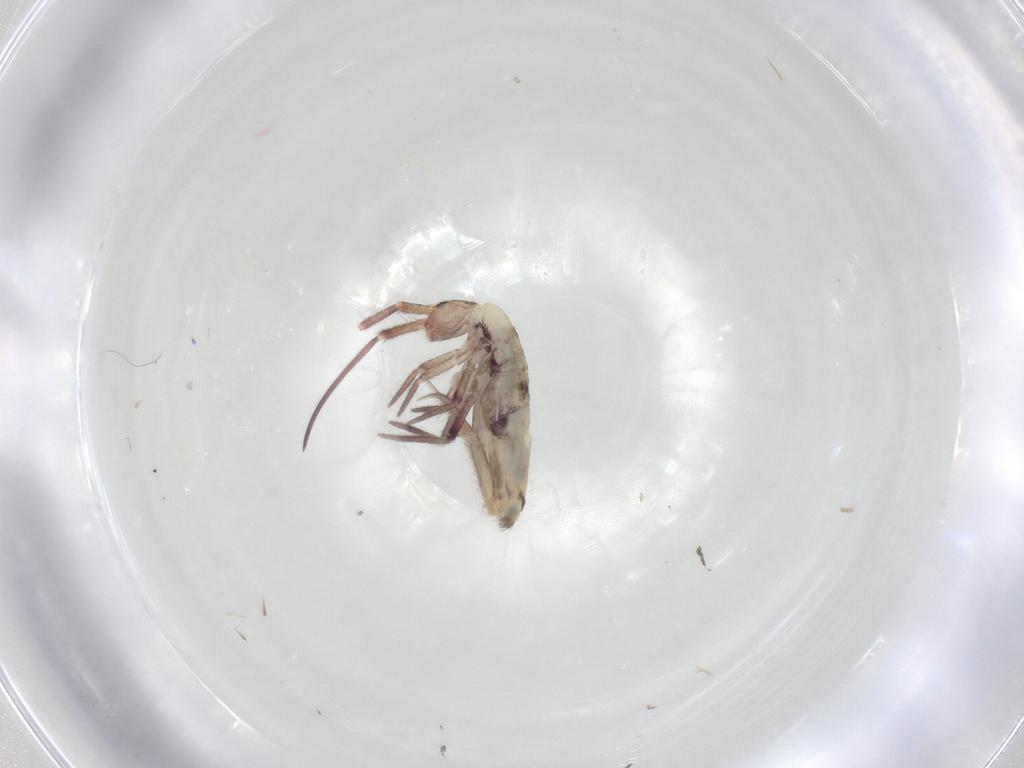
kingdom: Animalia
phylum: Arthropoda
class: Collembola
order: Entomobryomorpha
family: Entomobryidae
